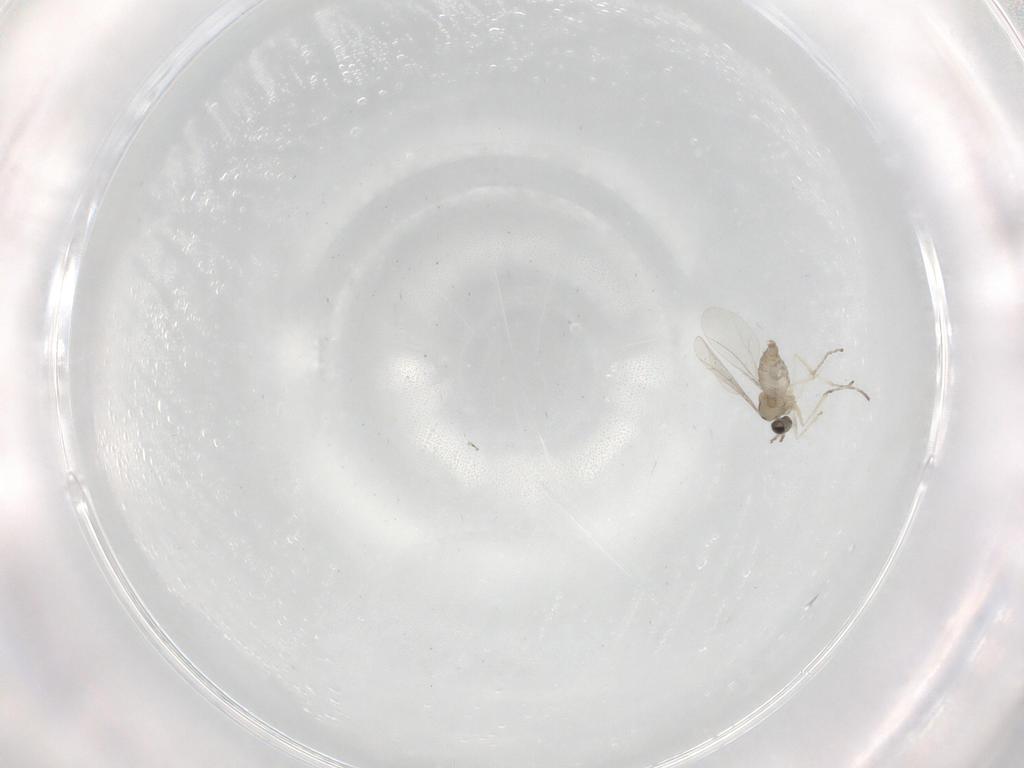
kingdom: Animalia
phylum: Arthropoda
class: Insecta
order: Diptera
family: Cecidomyiidae
